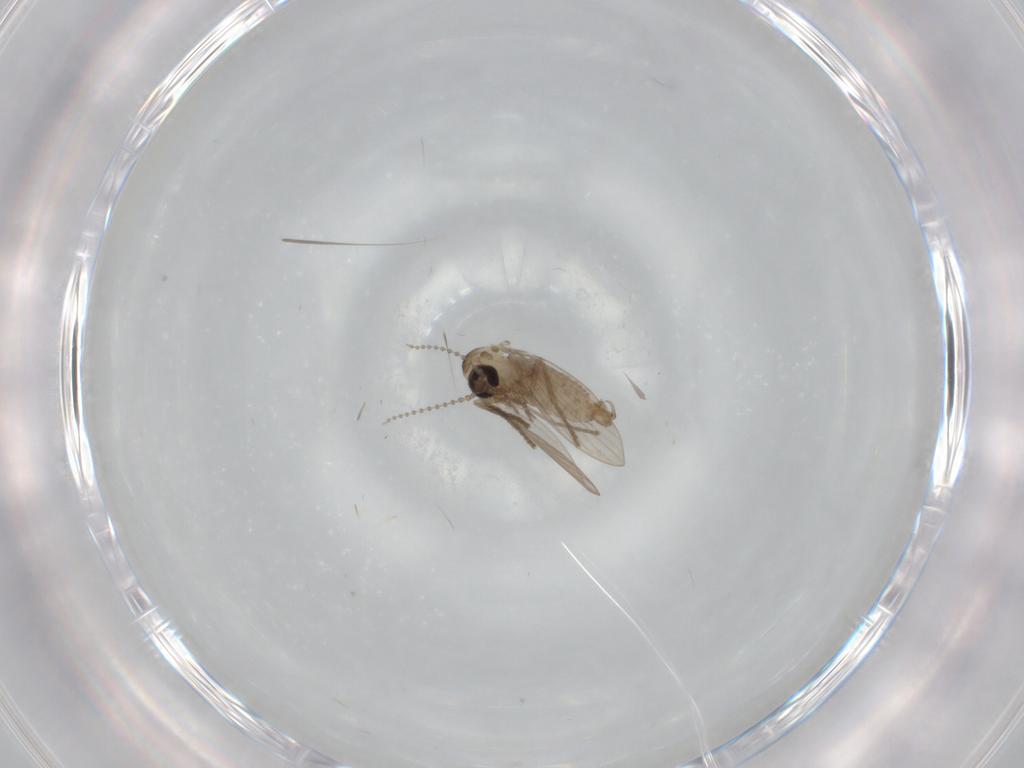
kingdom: Animalia
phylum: Arthropoda
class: Insecta
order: Diptera
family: Psychodidae
